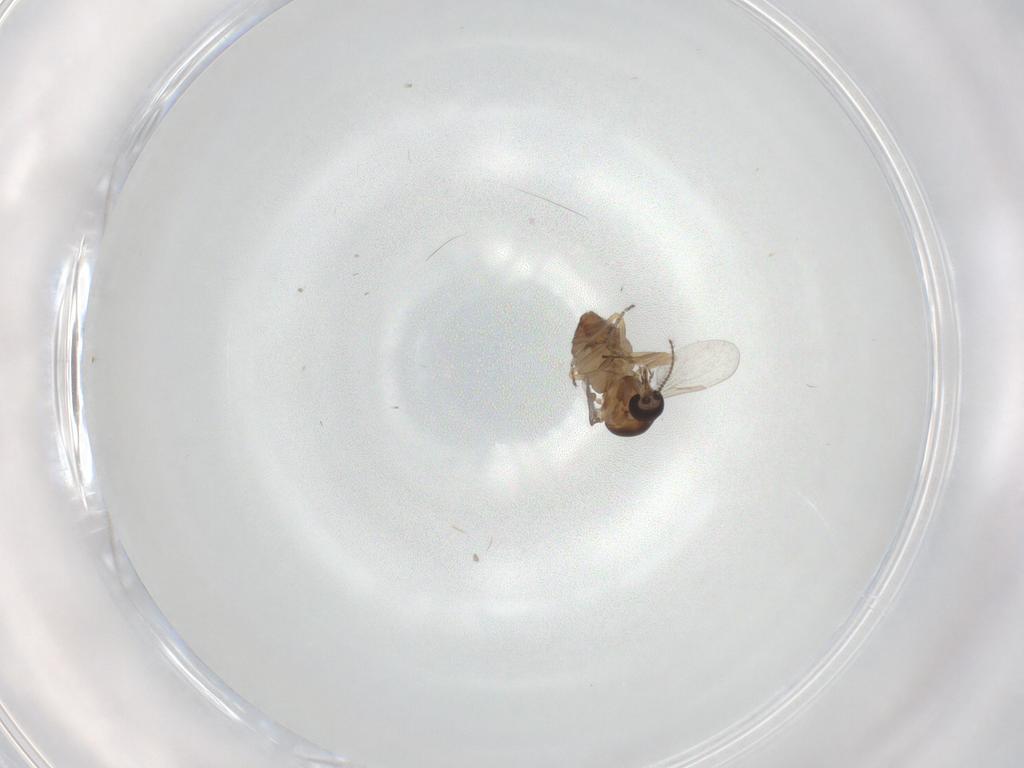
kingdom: Animalia
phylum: Arthropoda
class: Insecta
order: Diptera
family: Ceratopogonidae
